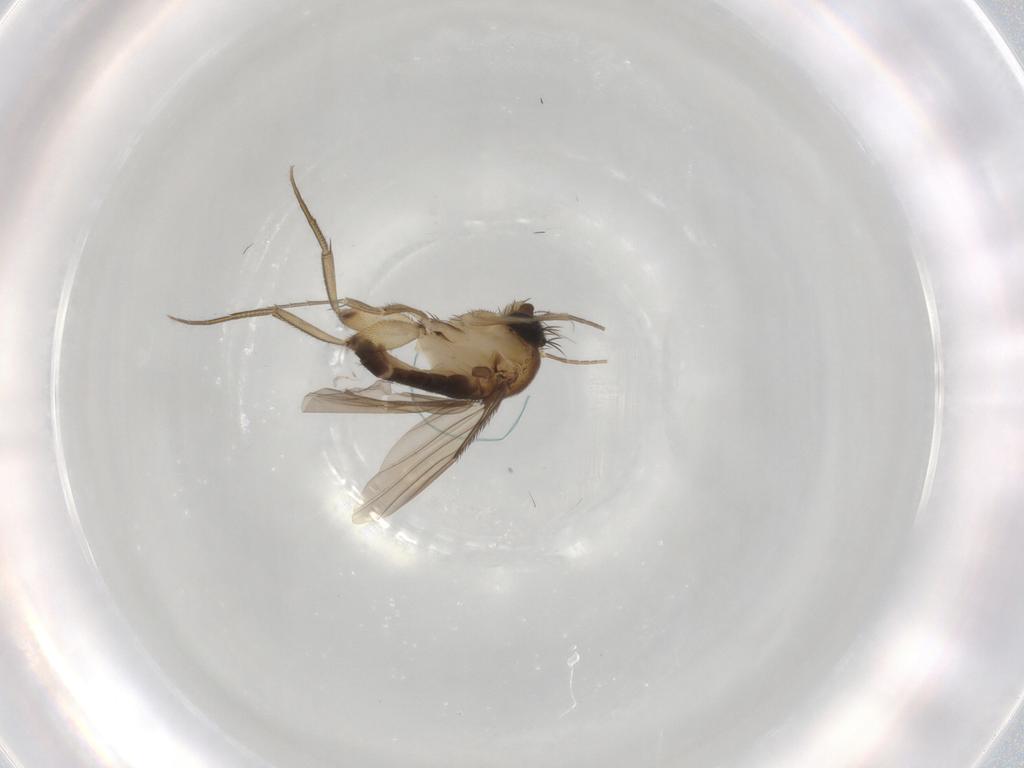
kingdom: Animalia
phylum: Arthropoda
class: Insecta
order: Diptera
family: Phoridae
